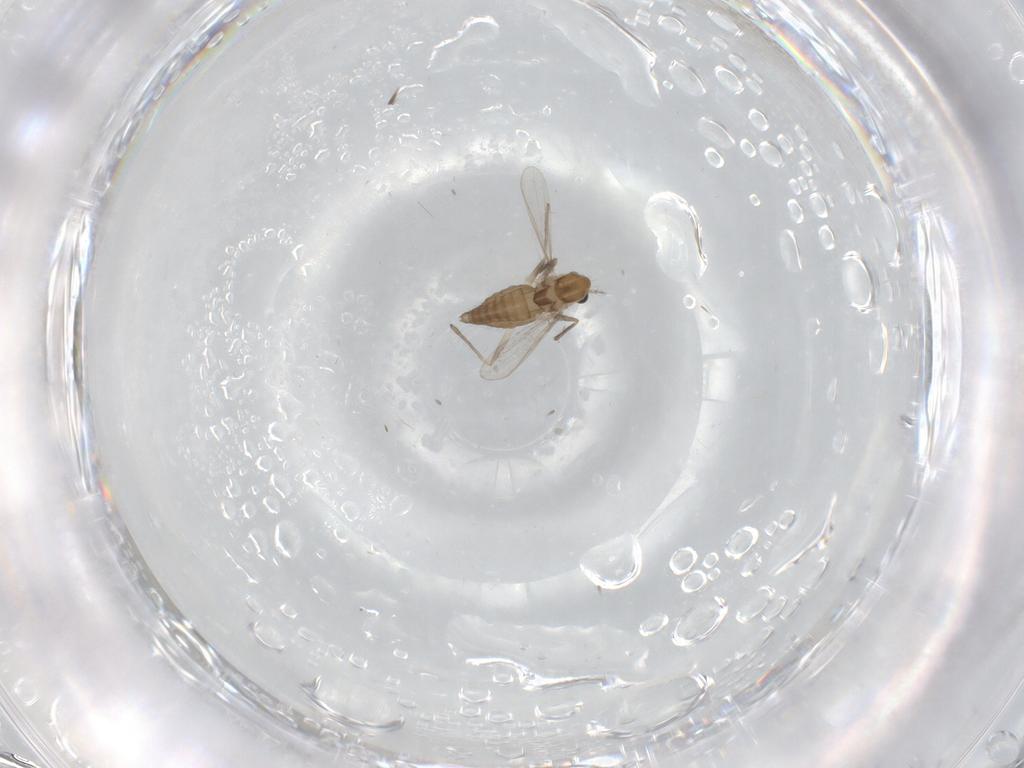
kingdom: Animalia
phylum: Arthropoda
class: Insecta
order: Diptera
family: Chironomidae
